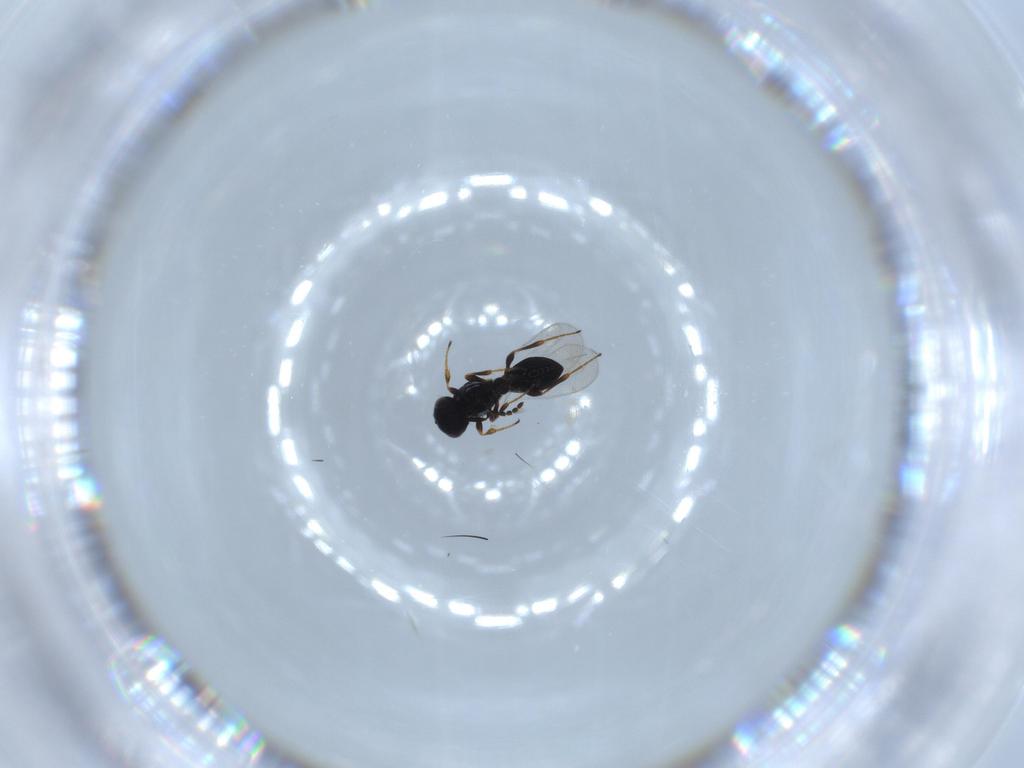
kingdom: Animalia
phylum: Arthropoda
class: Insecta
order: Hymenoptera
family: Platygastridae
